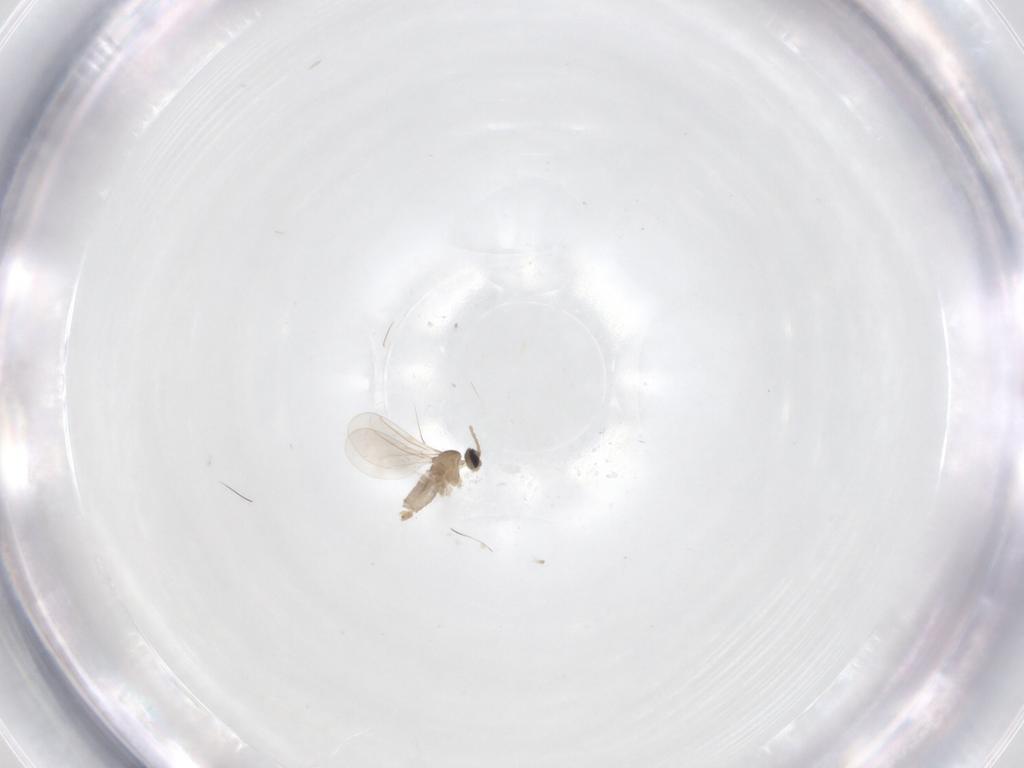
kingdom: Animalia
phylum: Arthropoda
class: Insecta
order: Diptera
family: Cecidomyiidae
